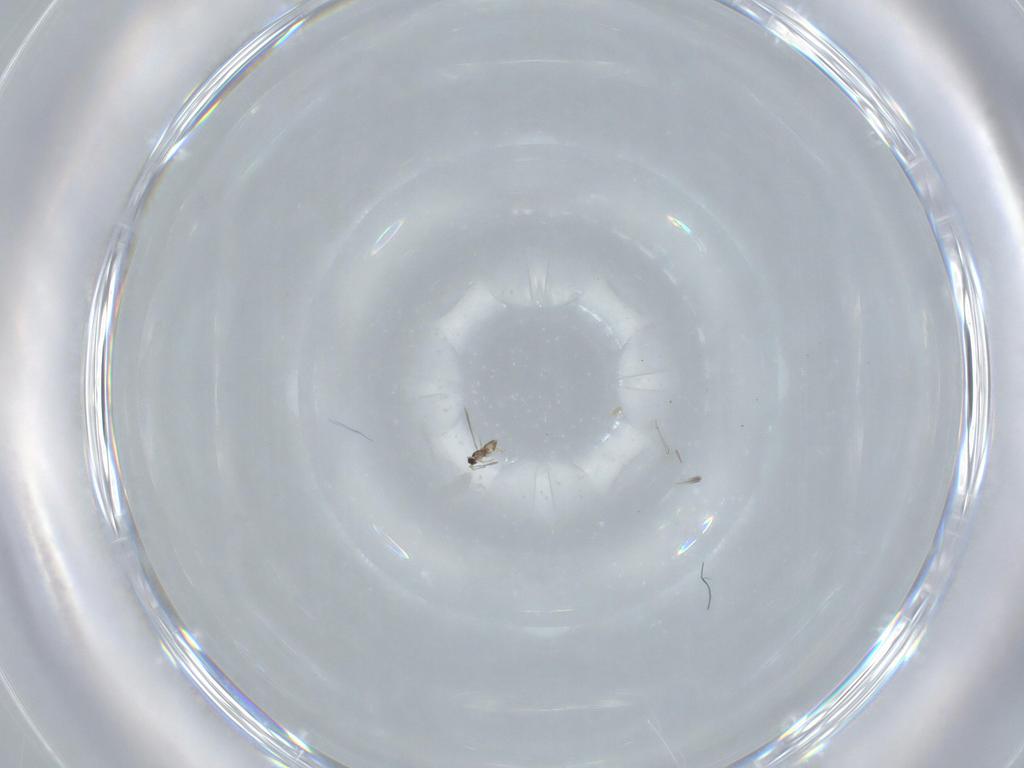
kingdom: Animalia
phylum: Arthropoda
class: Insecta
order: Hymenoptera
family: Mymaridae
